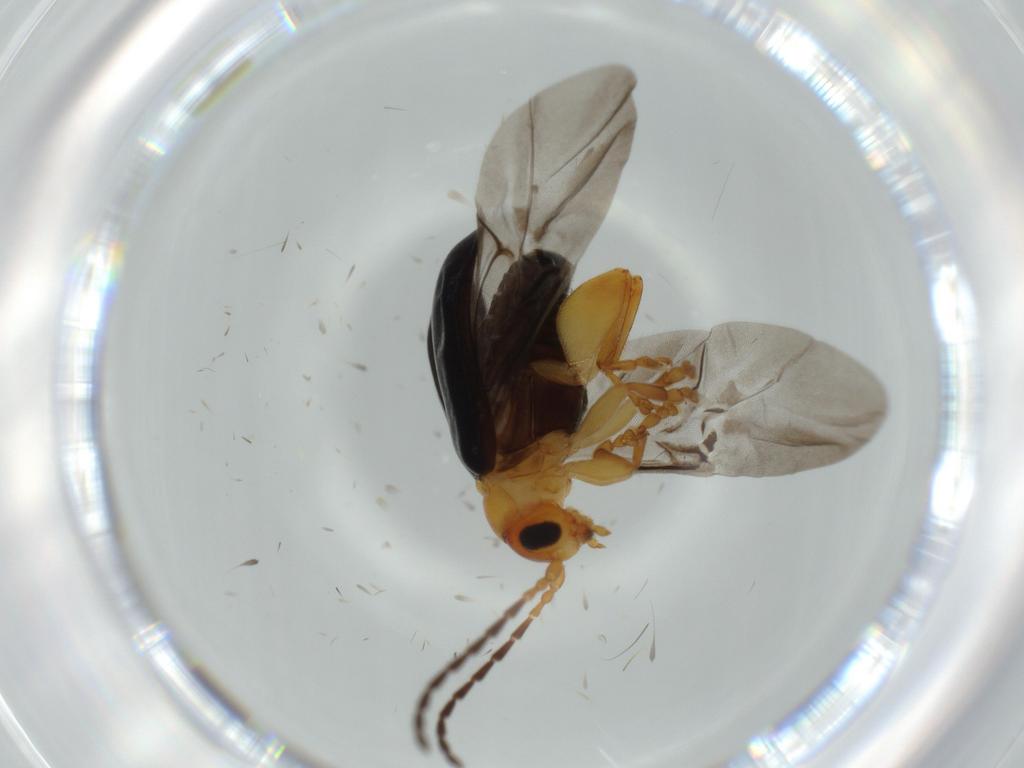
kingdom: Animalia
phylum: Arthropoda
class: Insecta
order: Coleoptera
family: Chrysomelidae
